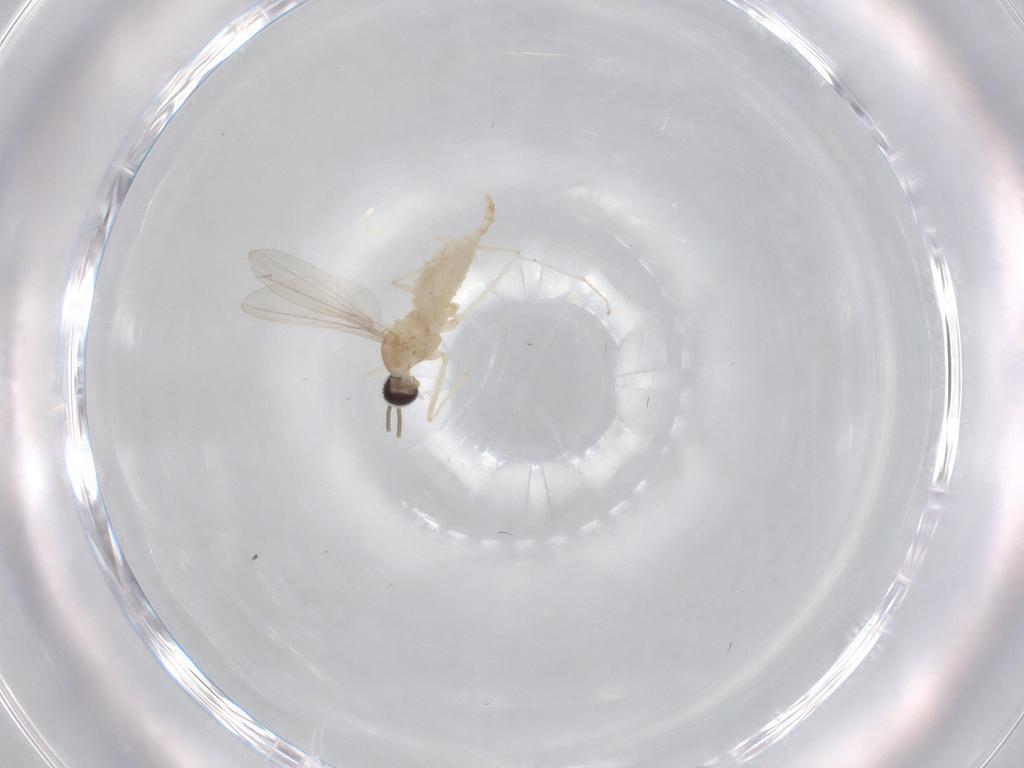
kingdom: Animalia
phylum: Arthropoda
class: Insecta
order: Diptera
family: Cecidomyiidae
